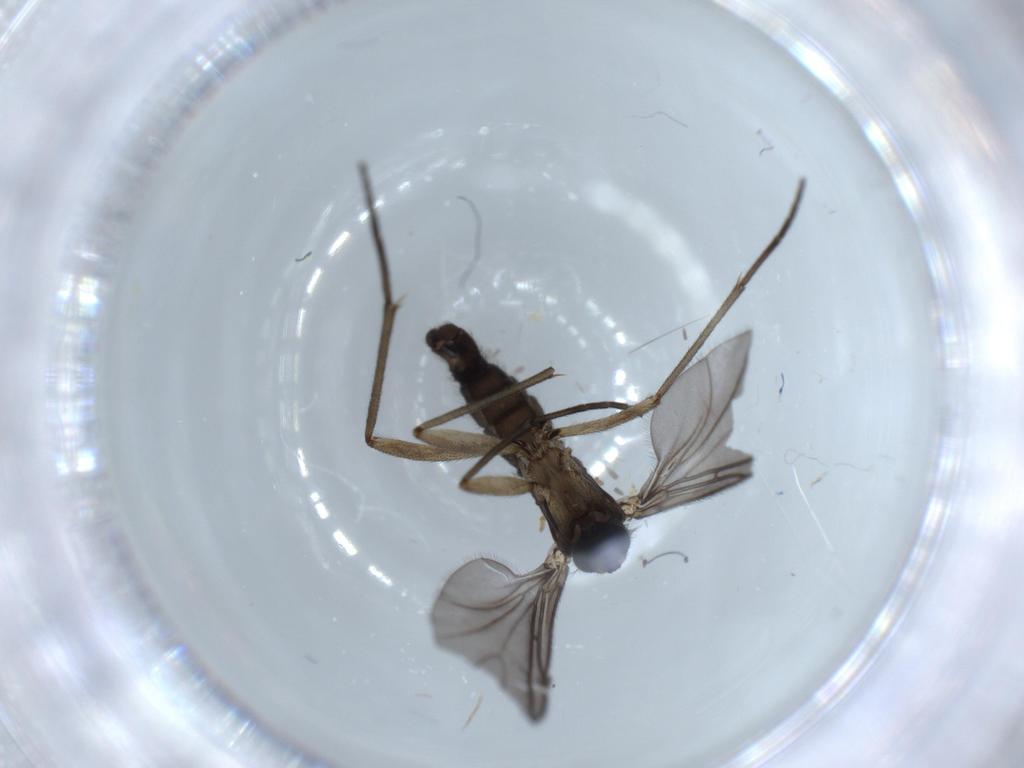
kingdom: Animalia
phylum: Arthropoda
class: Insecta
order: Diptera
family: Sciaridae
